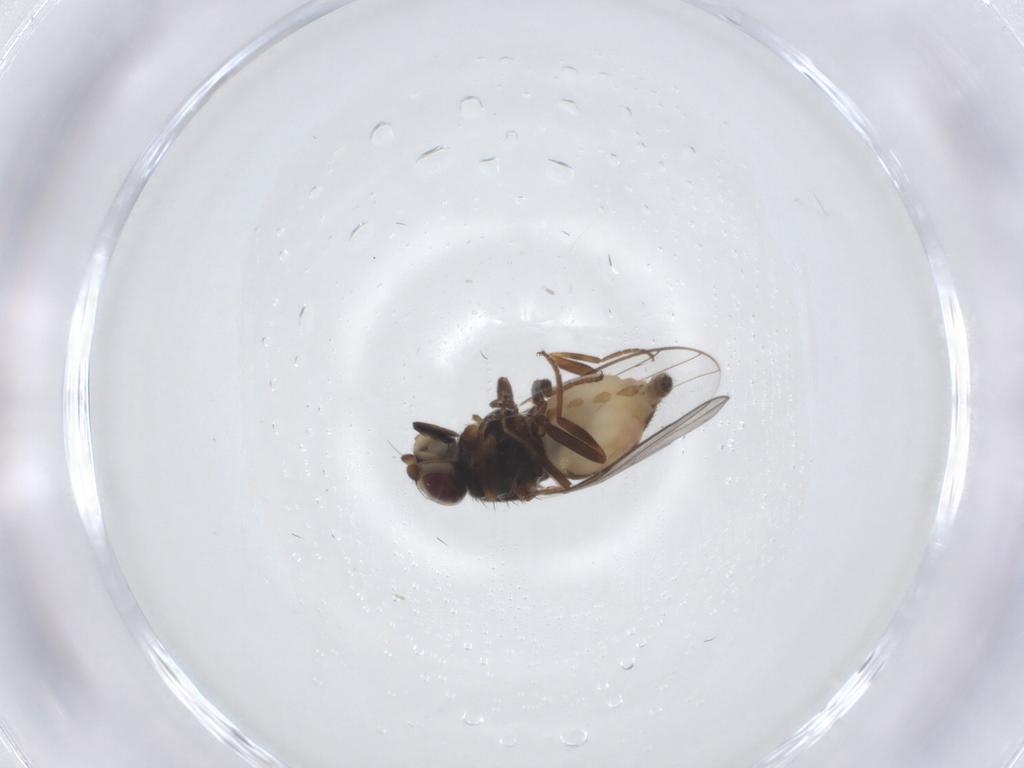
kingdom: Animalia
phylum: Arthropoda
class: Insecta
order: Diptera
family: Chloropidae
